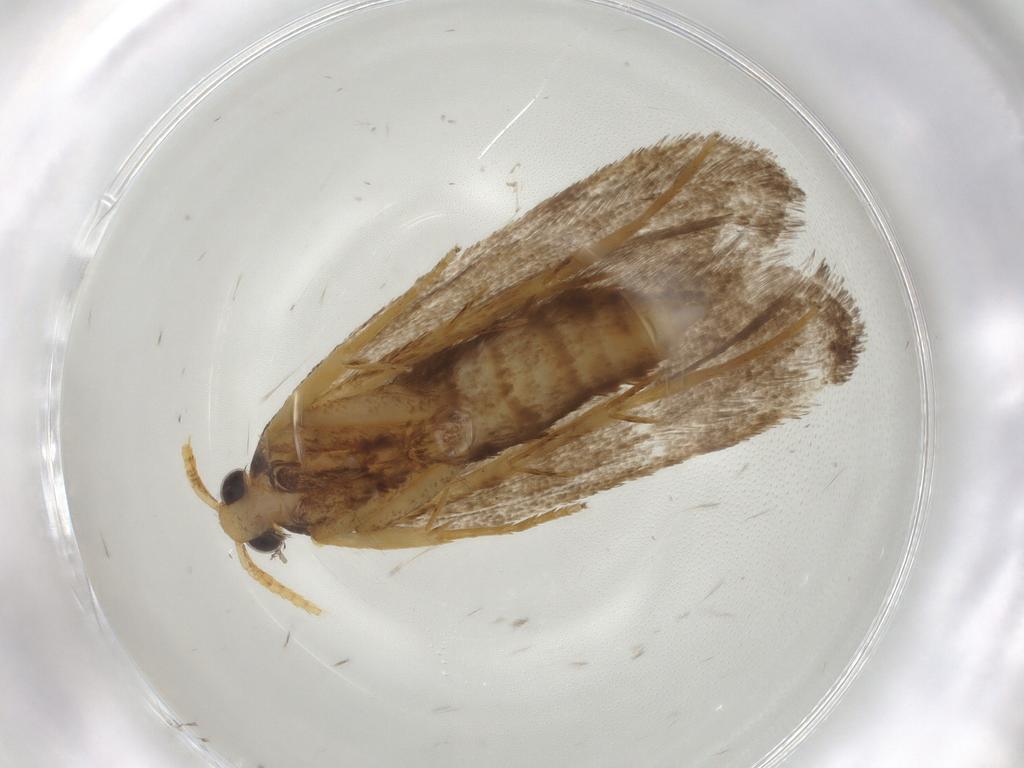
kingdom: Animalia
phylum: Arthropoda
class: Insecta
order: Lepidoptera
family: Lecithoceridae
